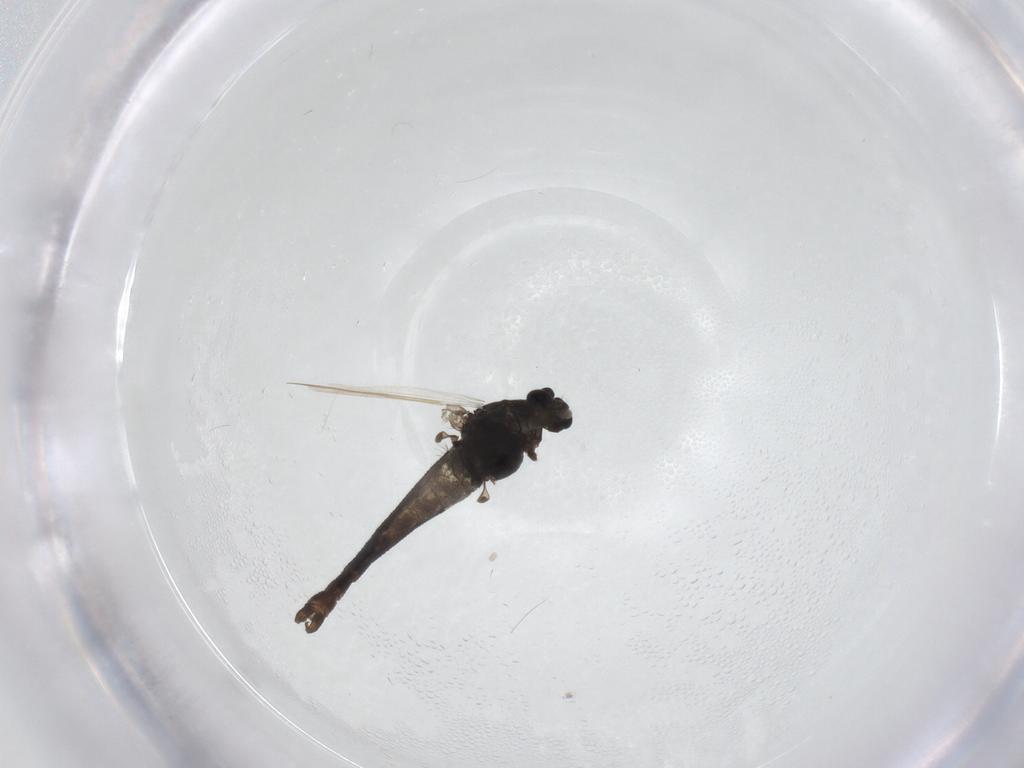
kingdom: Animalia
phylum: Arthropoda
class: Insecta
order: Diptera
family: Chironomidae
